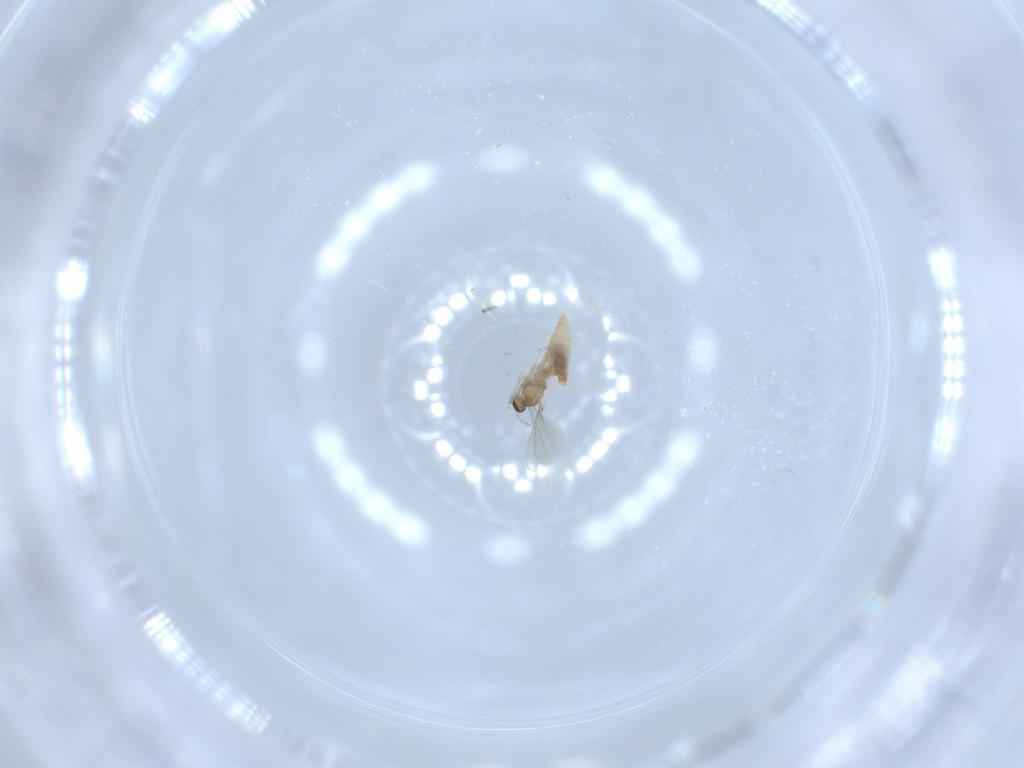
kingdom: Animalia
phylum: Arthropoda
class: Insecta
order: Diptera
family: Cecidomyiidae
